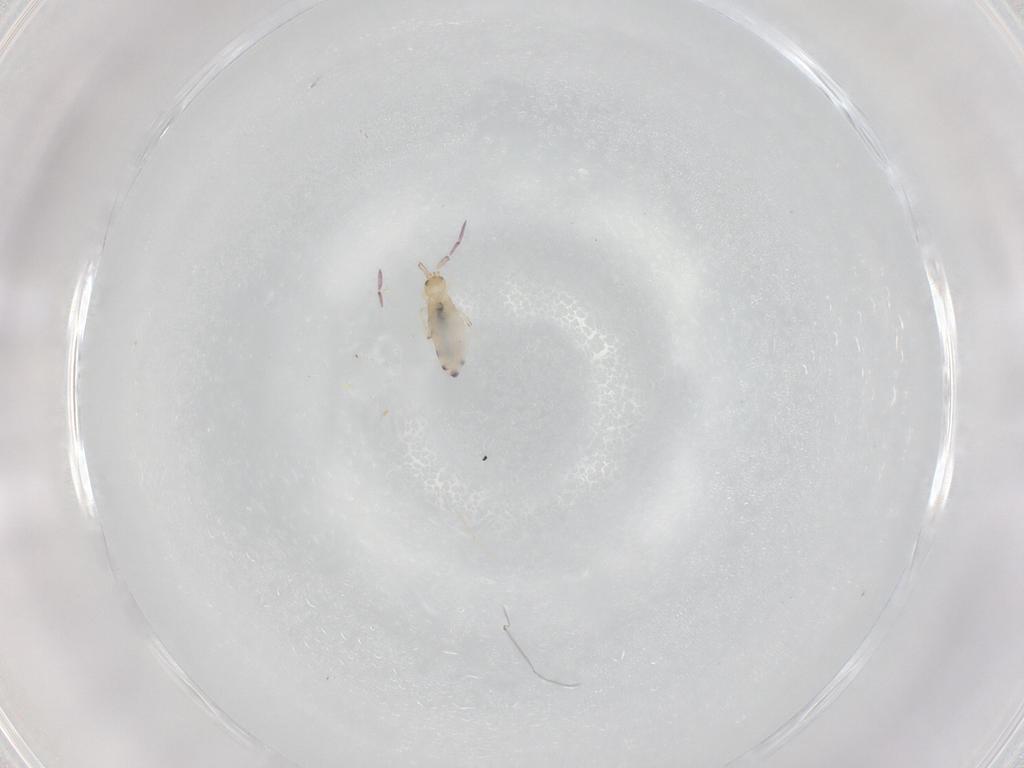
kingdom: Animalia
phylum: Arthropoda
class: Collembola
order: Entomobryomorpha
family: Entomobryidae
